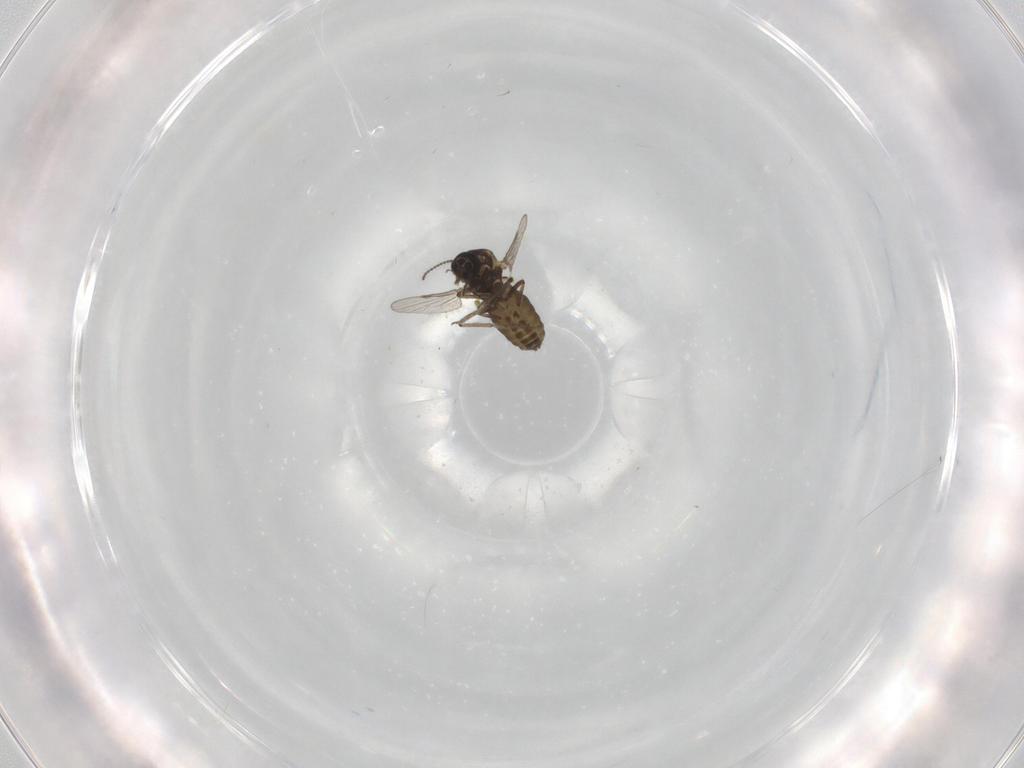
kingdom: Animalia
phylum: Arthropoda
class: Insecta
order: Diptera
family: Ceratopogonidae
